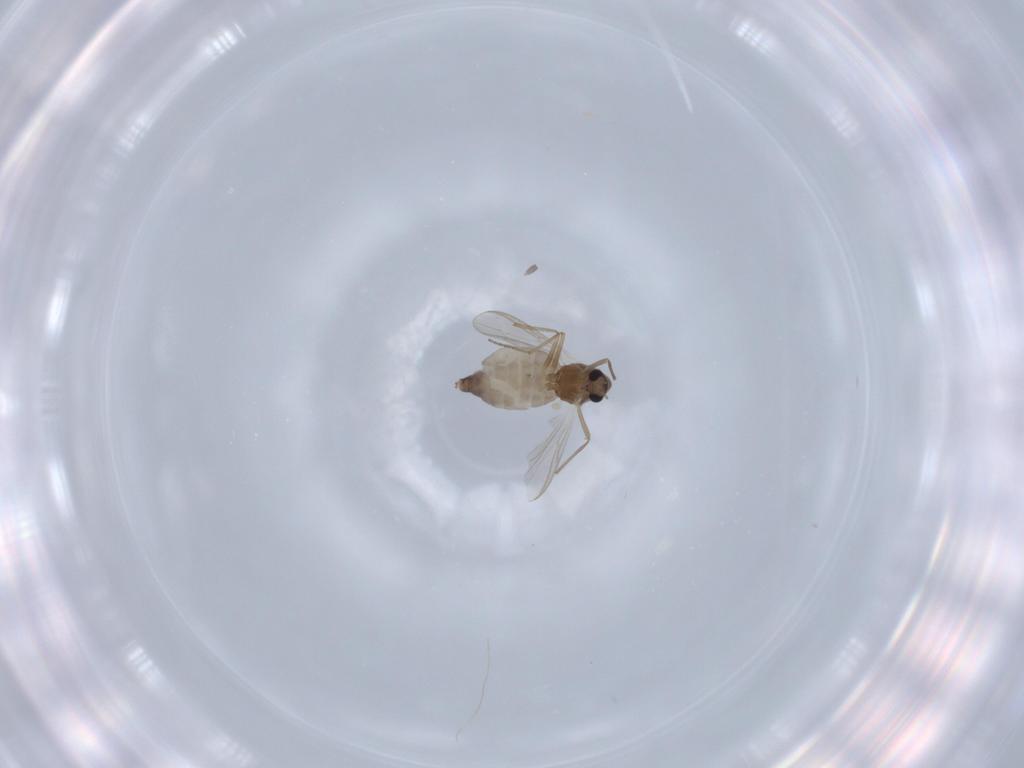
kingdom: Animalia
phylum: Arthropoda
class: Insecta
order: Diptera
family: Chironomidae
